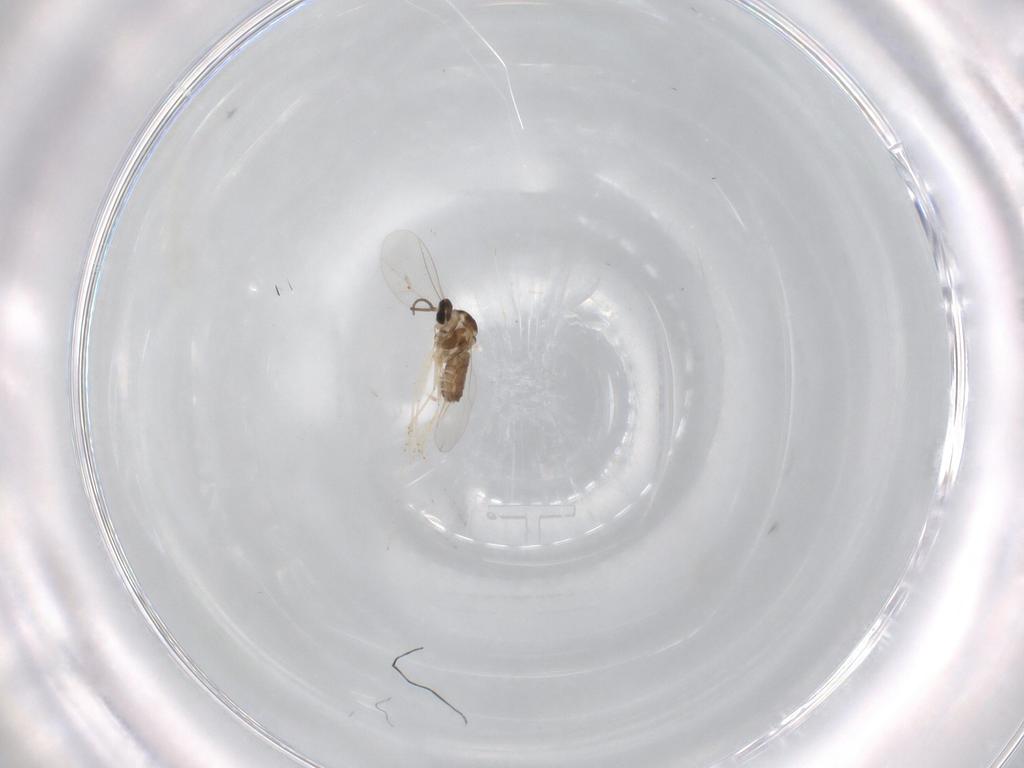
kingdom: Animalia
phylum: Arthropoda
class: Insecta
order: Diptera
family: Cecidomyiidae
